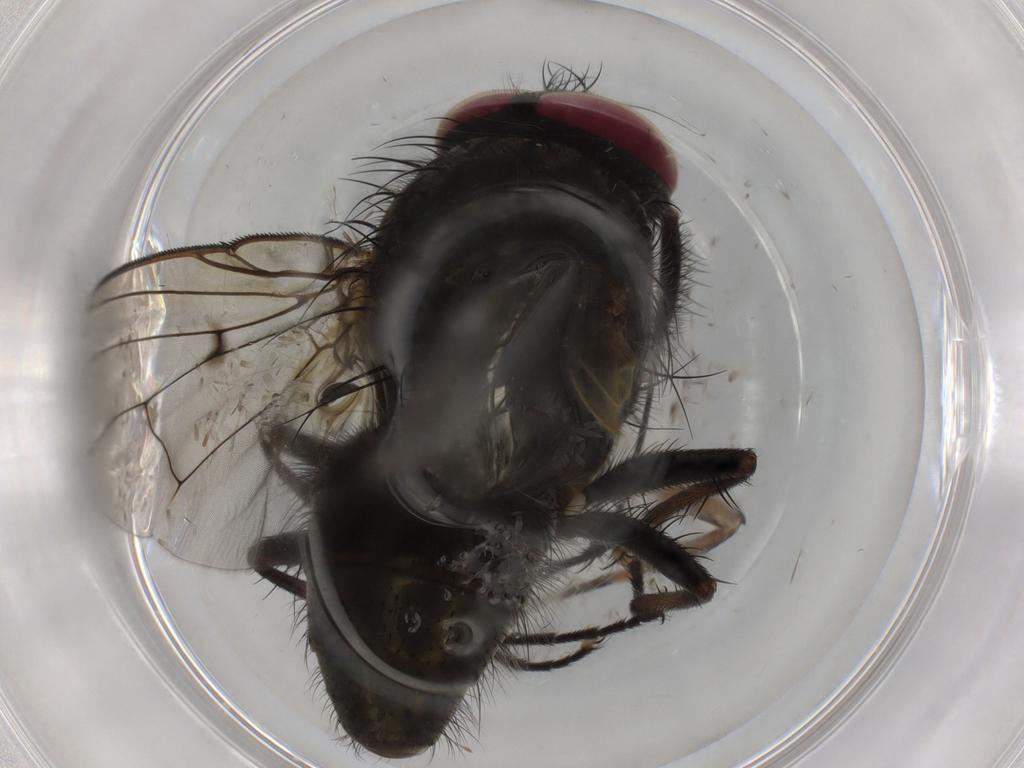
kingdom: Animalia
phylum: Arthropoda
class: Insecta
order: Diptera
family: Muscidae
